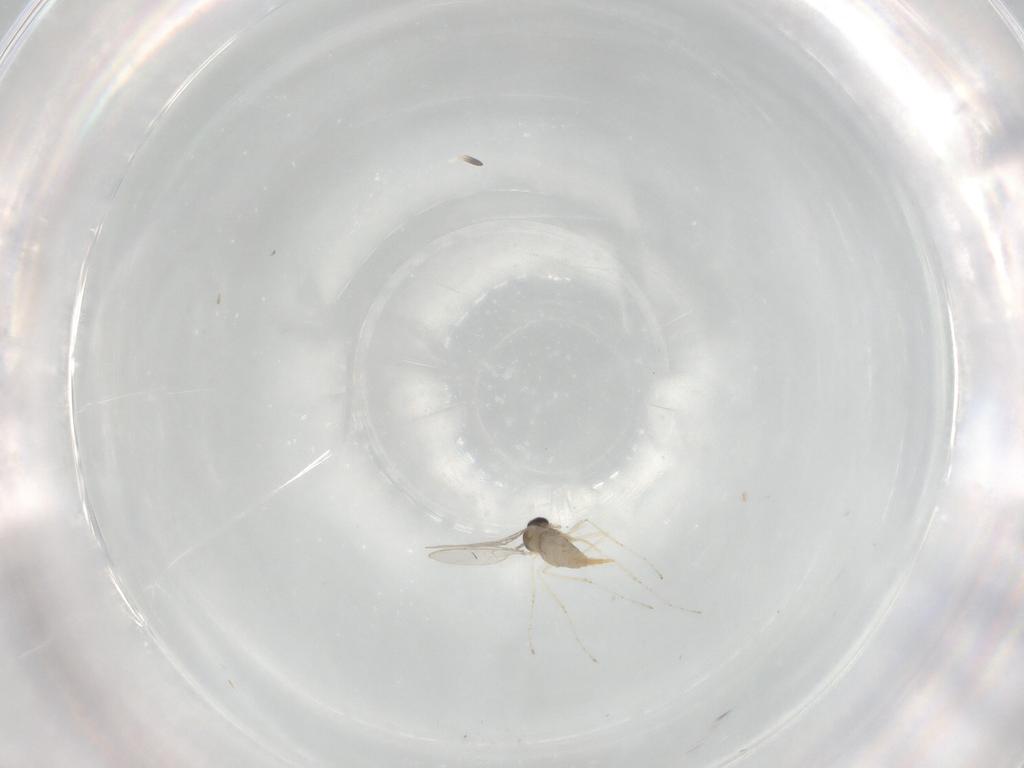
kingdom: Animalia
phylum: Arthropoda
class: Insecta
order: Diptera
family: Cecidomyiidae
